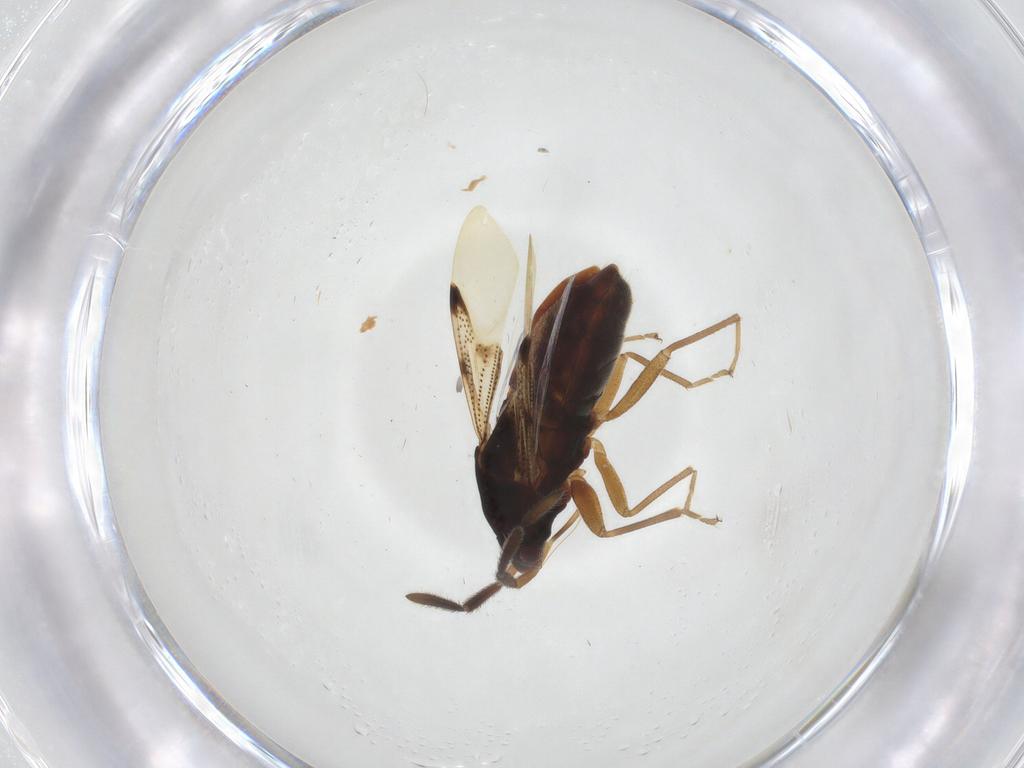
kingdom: Animalia
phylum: Arthropoda
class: Insecta
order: Hemiptera
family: Rhyparochromidae
